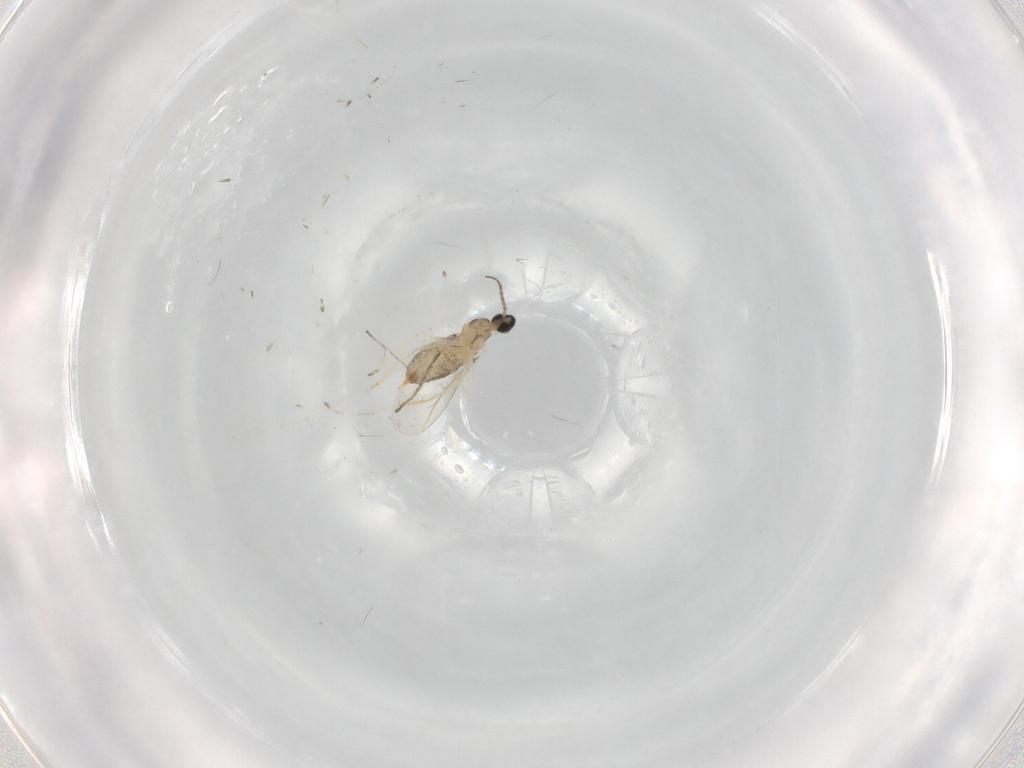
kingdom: Animalia
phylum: Arthropoda
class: Insecta
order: Diptera
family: Cecidomyiidae
